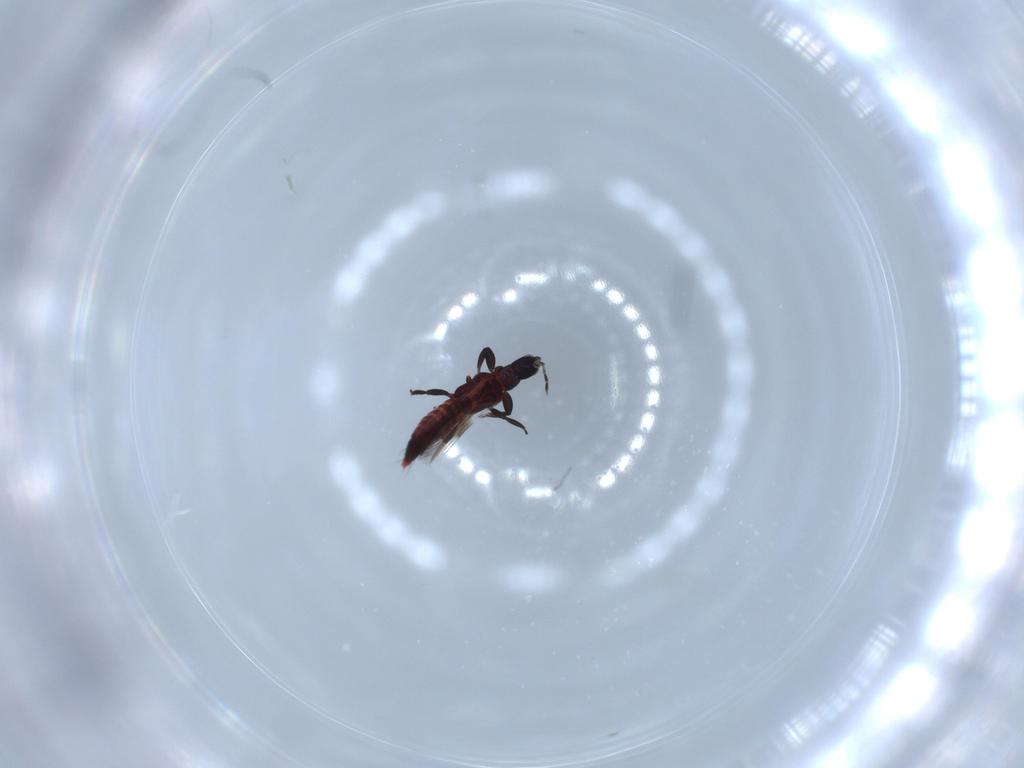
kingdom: Animalia
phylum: Arthropoda
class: Insecta
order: Thysanoptera
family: Aeolothripidae
